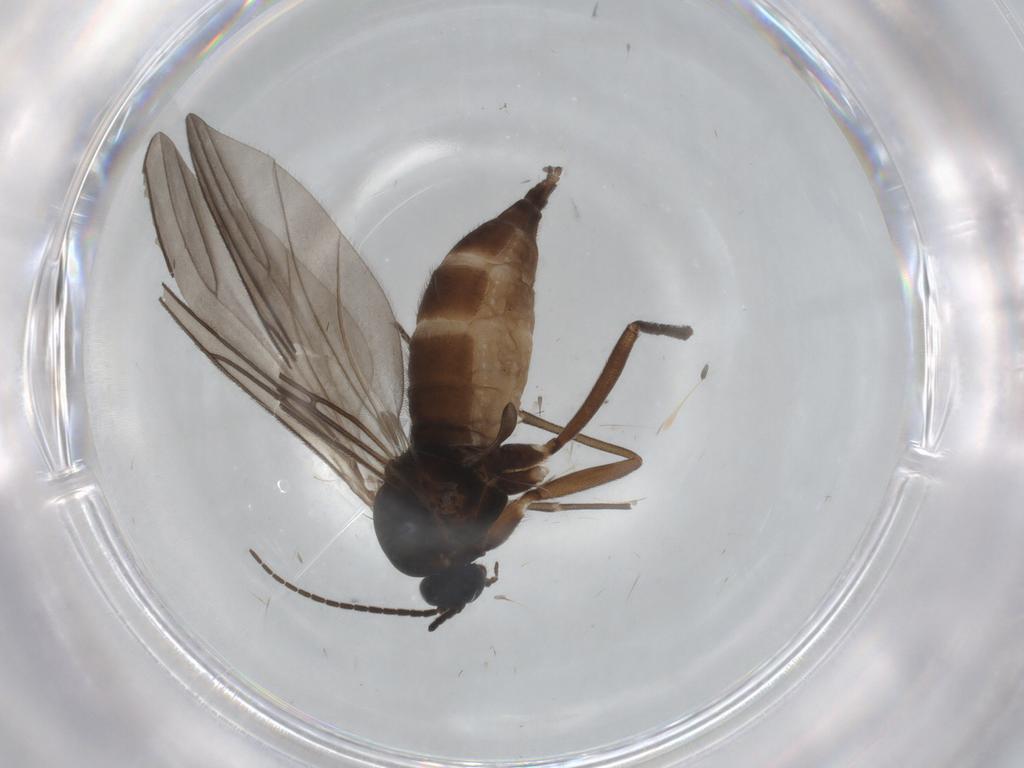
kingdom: Animalia
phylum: Arthropoda
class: Insecta
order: Diptera
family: Sciaridae
